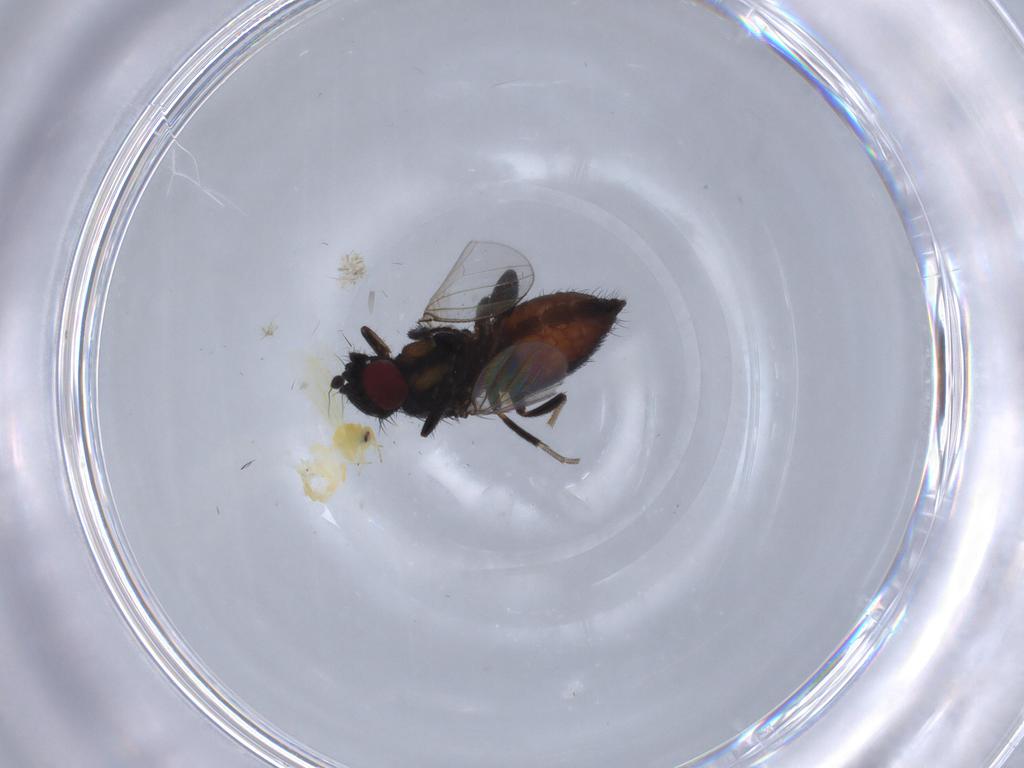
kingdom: Animalia
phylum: Arthropoda
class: Insecta
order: Diptera
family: Milichiidae
